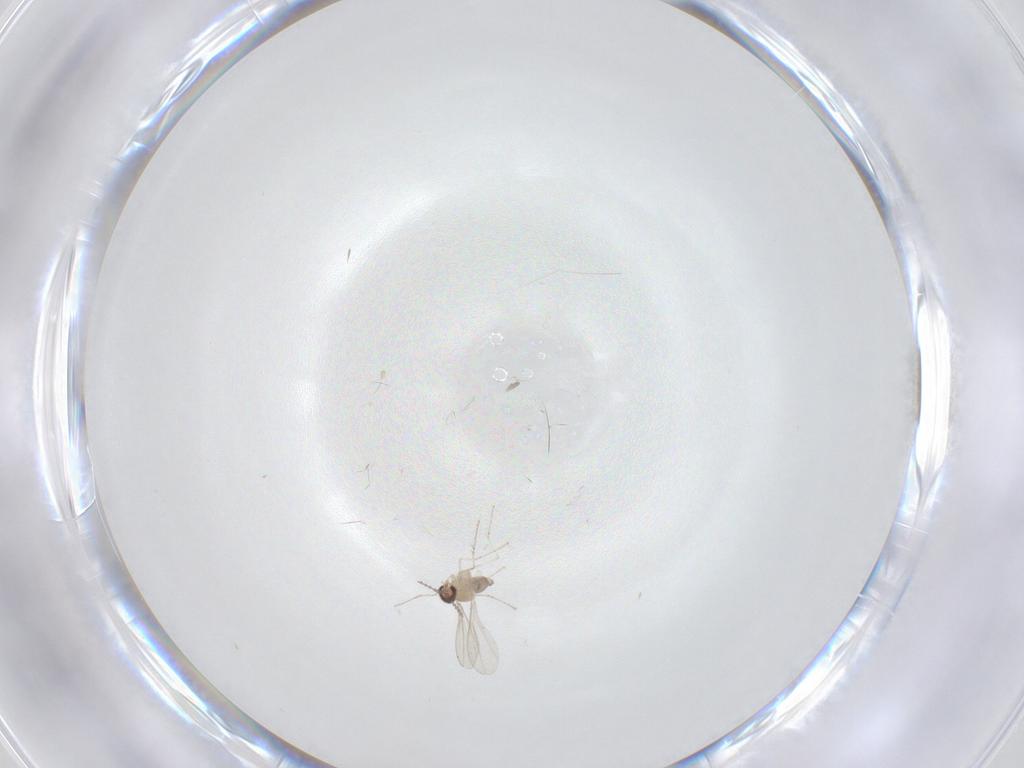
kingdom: Animalia
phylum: Arthropoda
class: Insecta
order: Diptera
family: Cecidomyiidae
